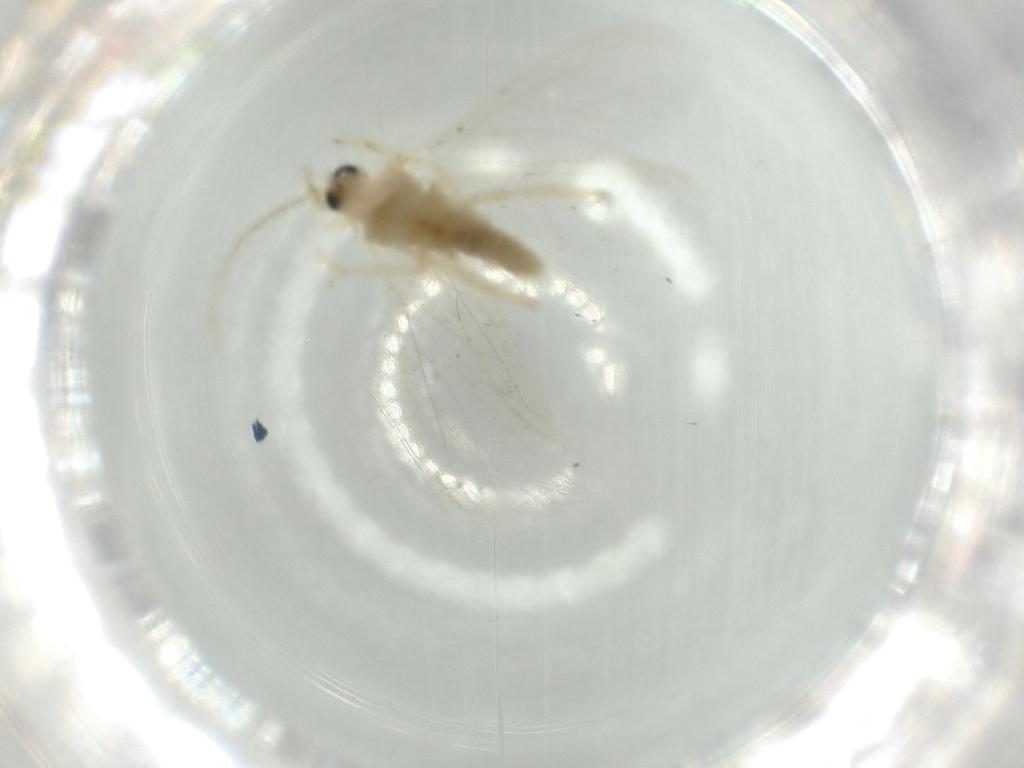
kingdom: Animalia
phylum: Arthropoda
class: Insecta
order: Neuroptera
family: Coniopterygidae
